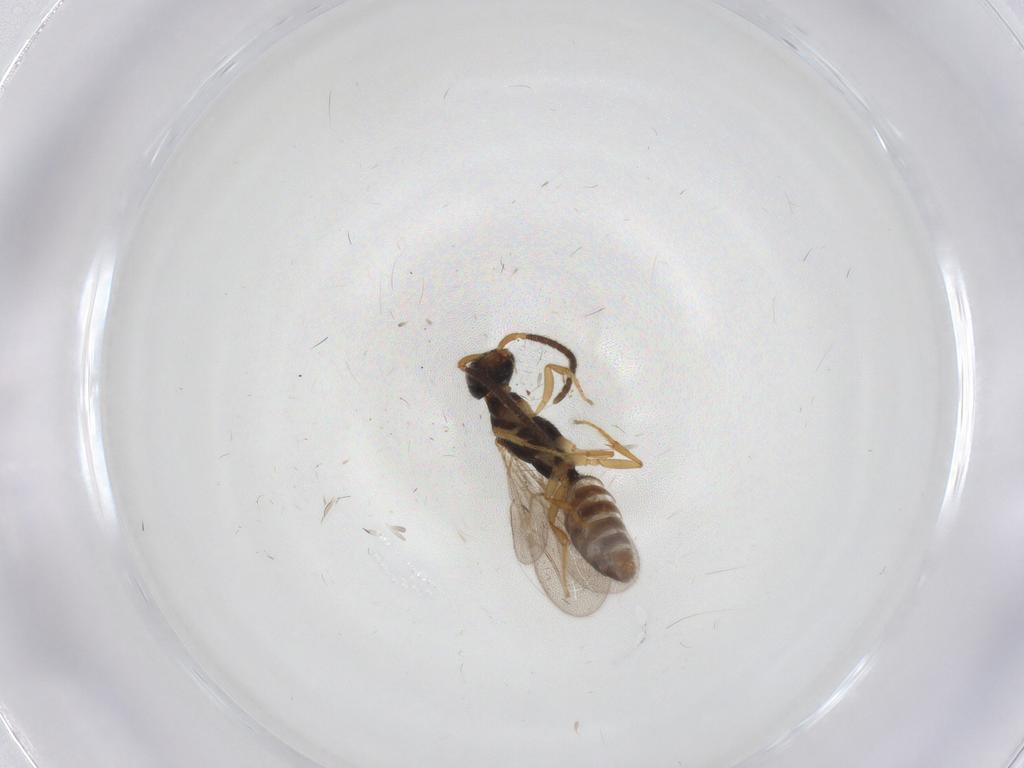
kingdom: Animalia
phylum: Arthropoda
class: Insecta
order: Hymenoptera
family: Bethylidae
